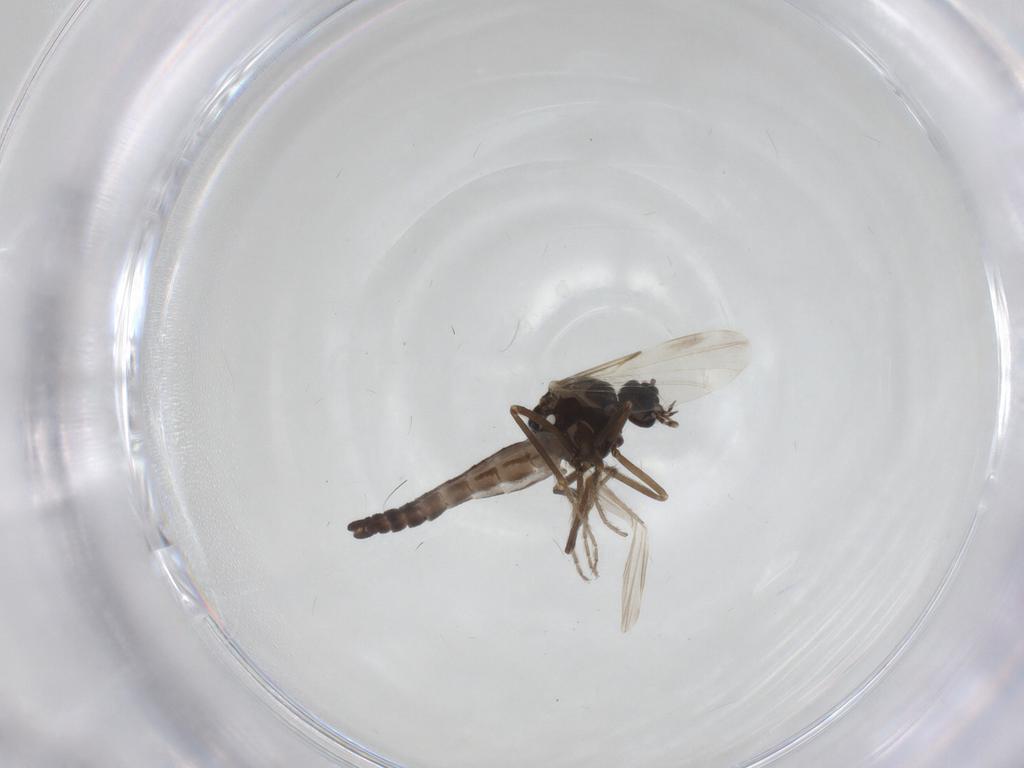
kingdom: Animalia
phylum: Arthropoda
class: Insecta
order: Diptera
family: Ceratopogonidae
